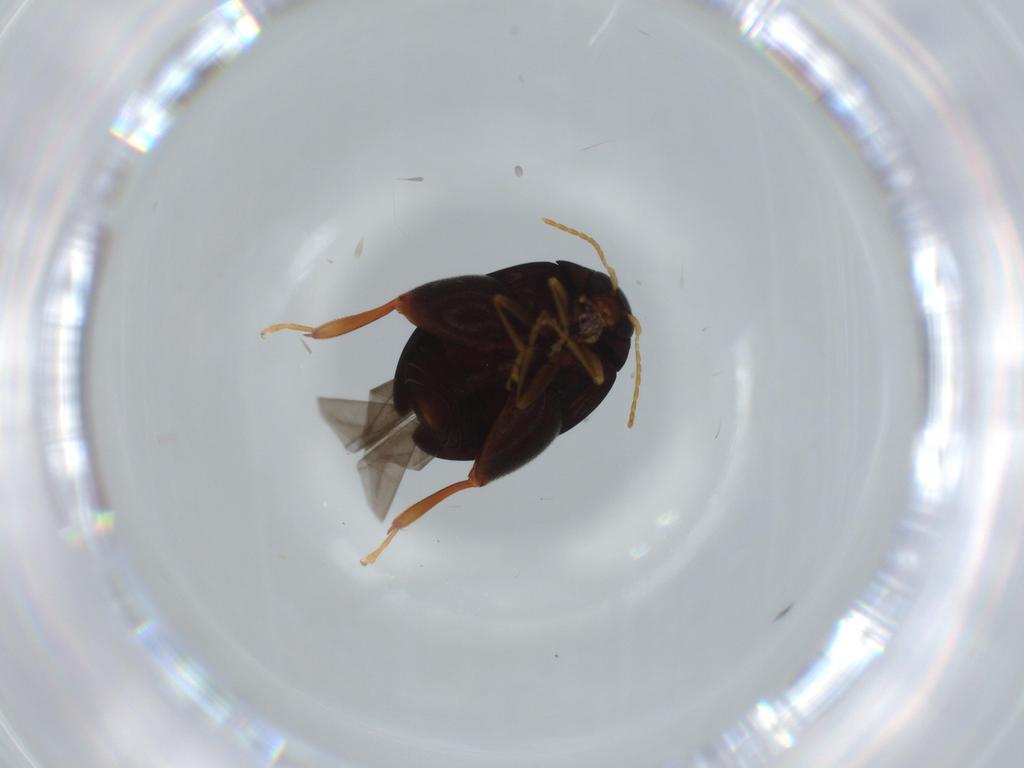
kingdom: Animalia
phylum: Arthropoda
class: Insecta
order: Coleoptera
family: Chrysomelidae
